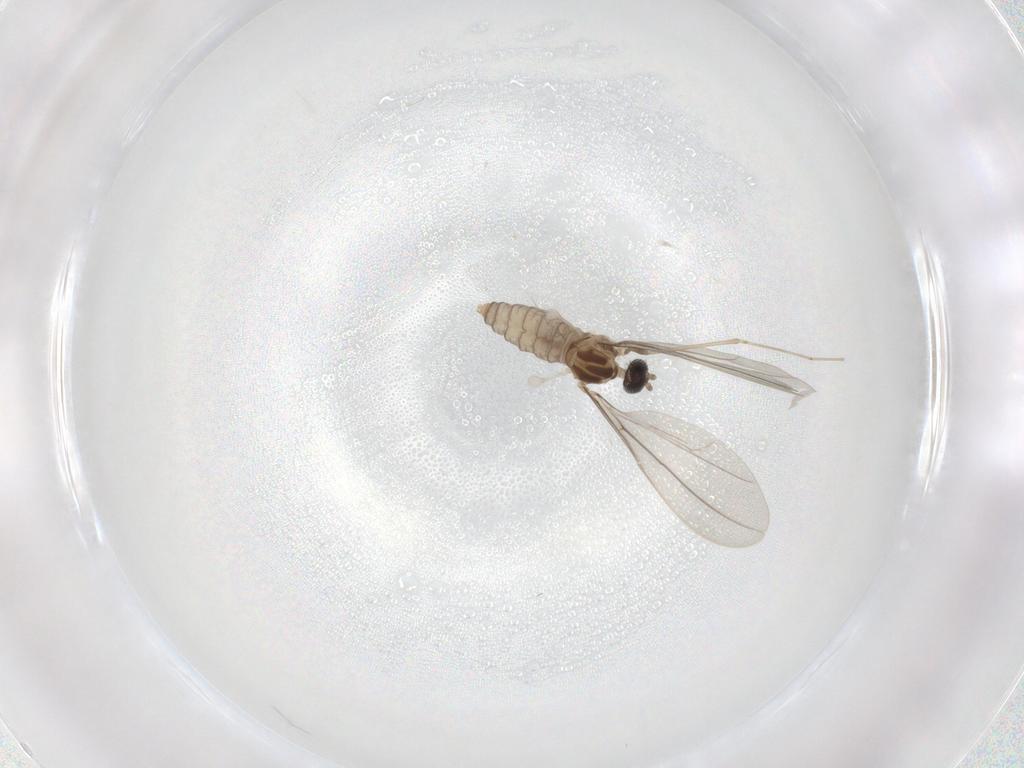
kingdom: Animalia
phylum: Arthropoda
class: Insecta
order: Diptera
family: Cecidomyiidae
